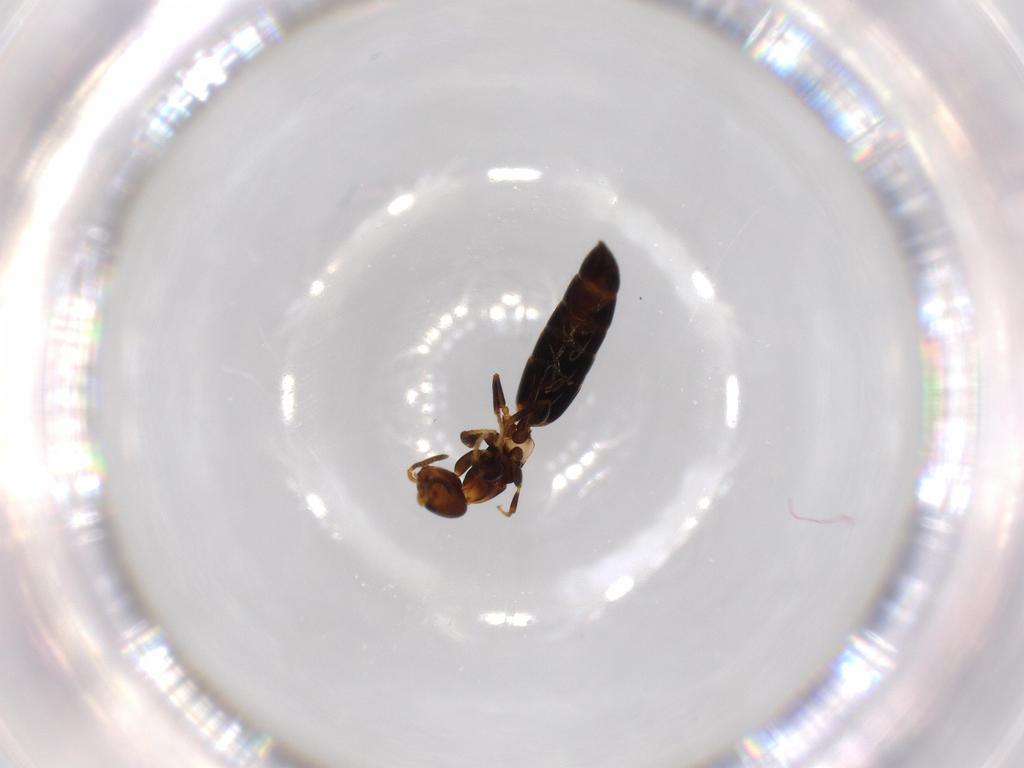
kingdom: Animalia
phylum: Arthropoda
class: Insecta
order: Hymenoptera
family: Bethylidae
